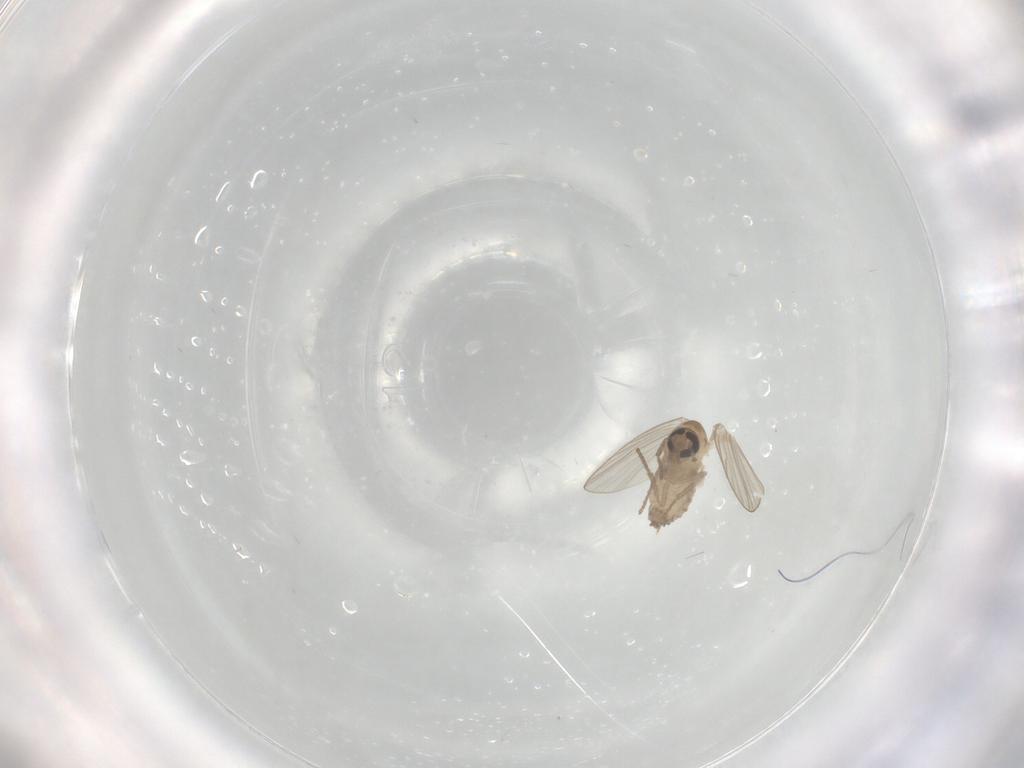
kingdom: Animalia
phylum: Arthropoda
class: Insecta
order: Diptera
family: Psychodidae
